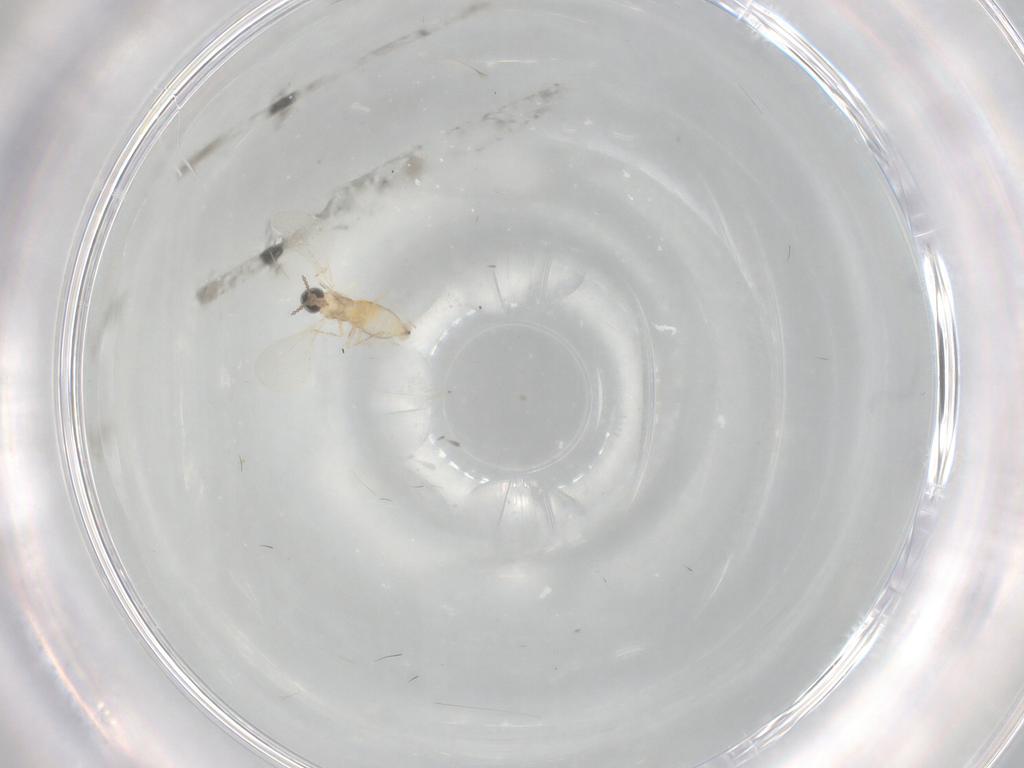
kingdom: Animalia
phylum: Arthropoda
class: Insecta
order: Diptera
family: Cecidomyiidae
